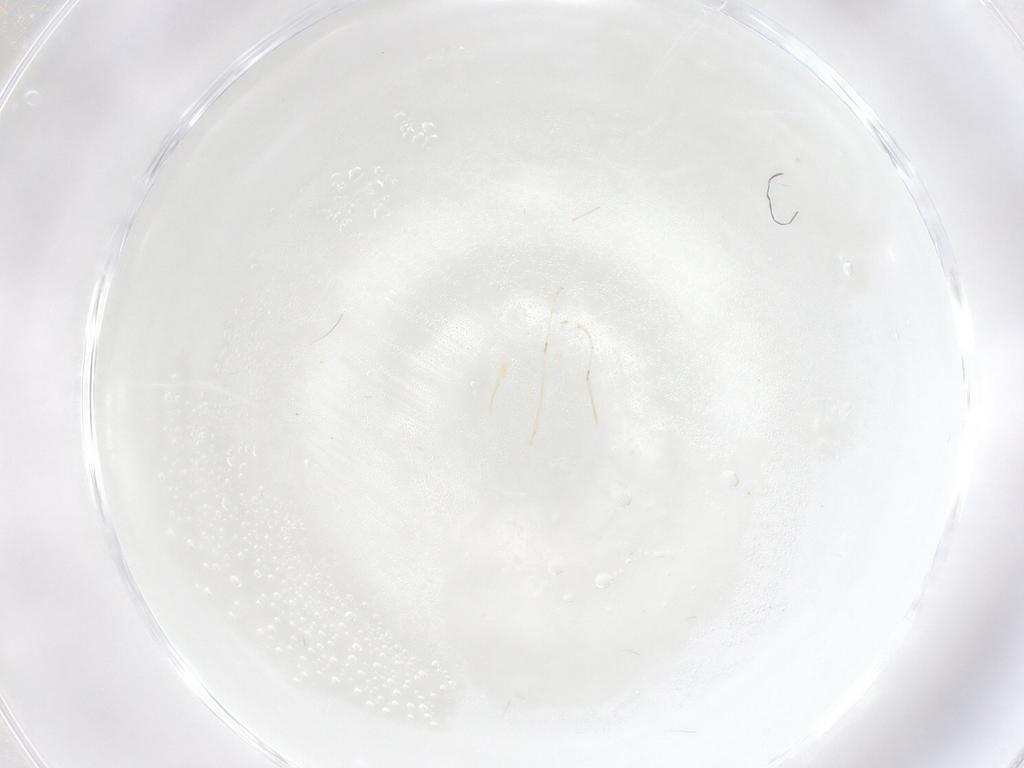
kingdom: Animalia
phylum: Arthropoda
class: Insecta
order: Diptera
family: Cecidomyiidae
